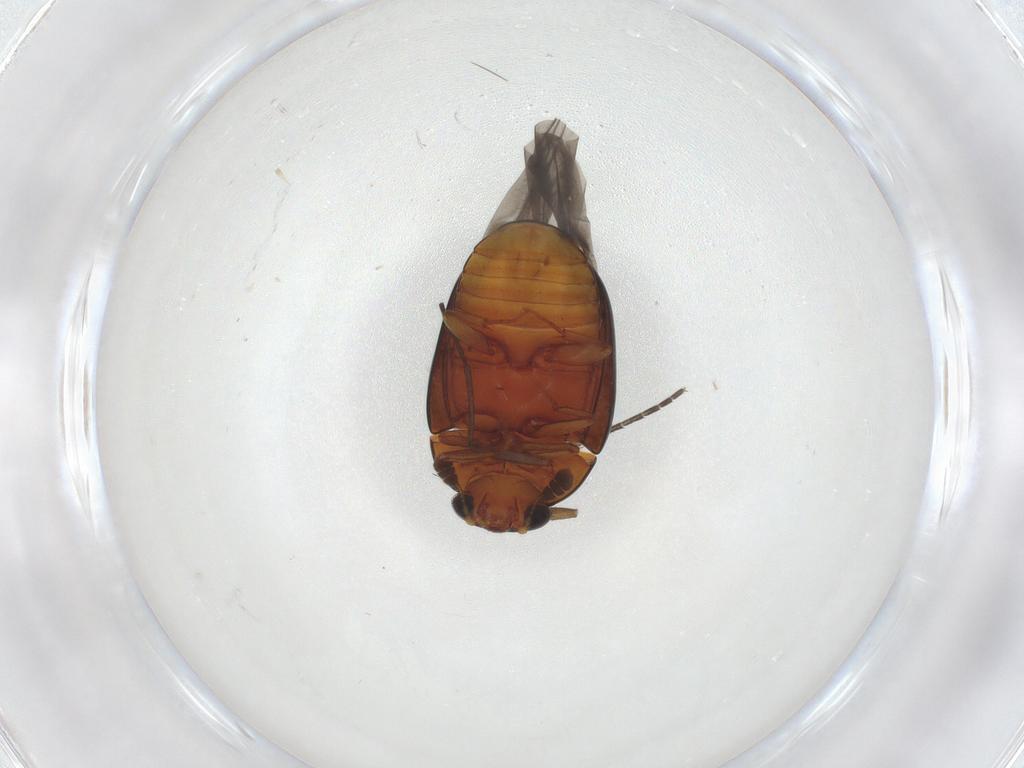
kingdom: Animalia
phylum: Arthropoda
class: Insecta
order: Coleoptera
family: Nitidulidae
